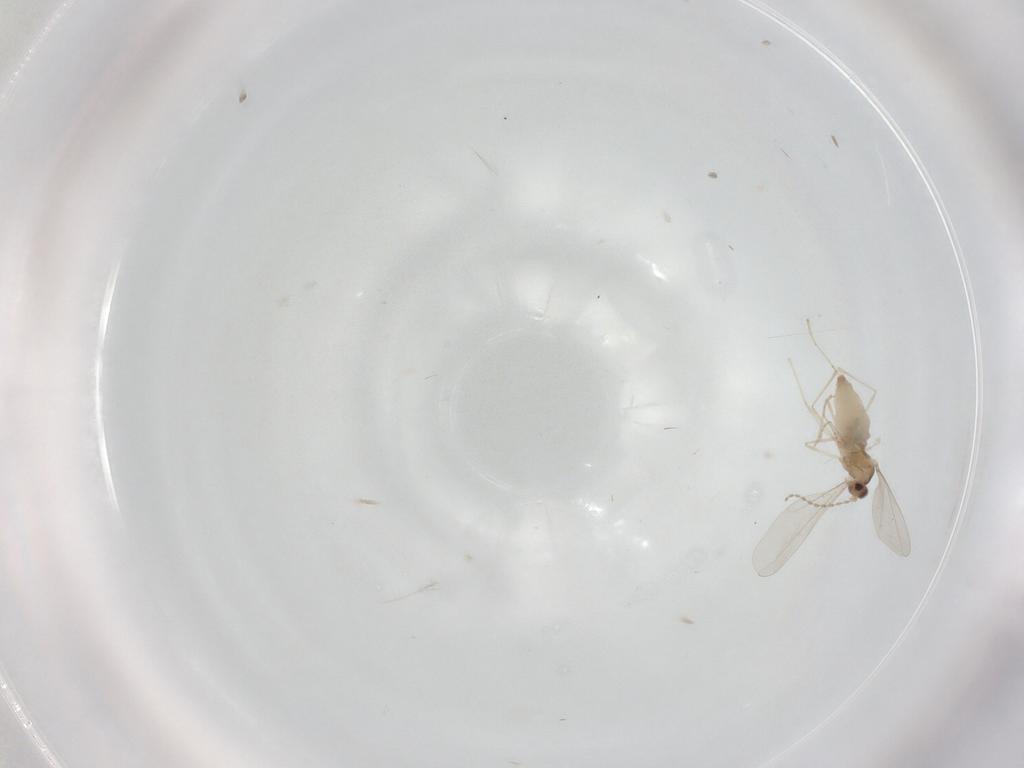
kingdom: Animalia
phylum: Arthropoda
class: Insecta
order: Diptera
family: Cecidomyiidae
